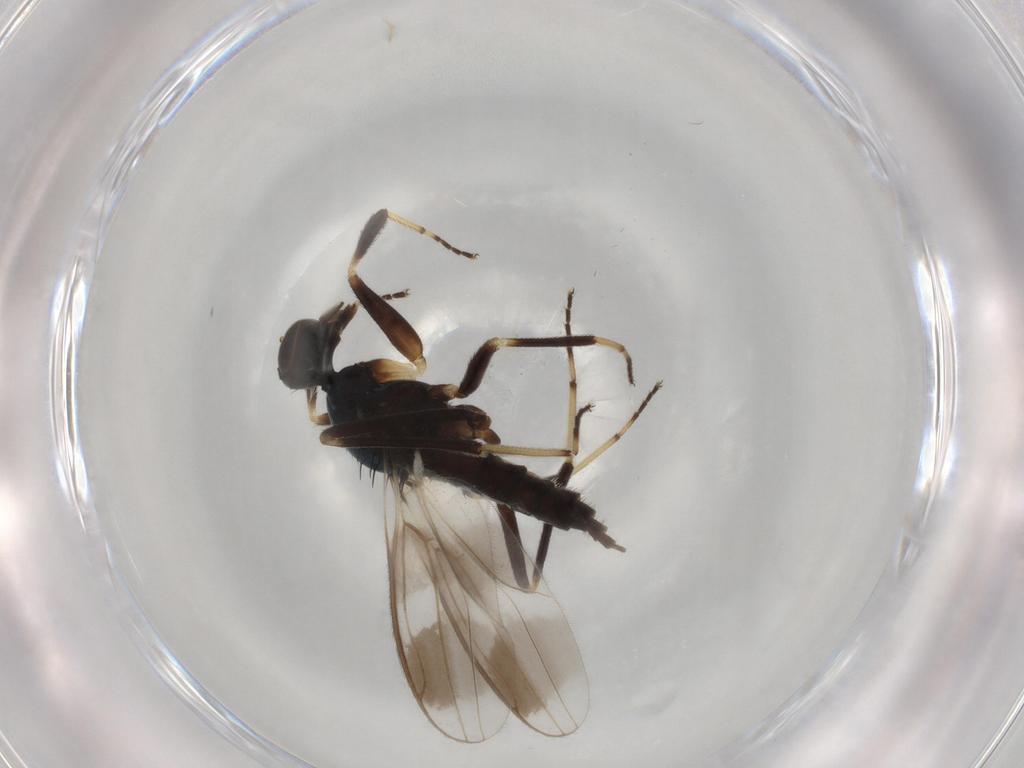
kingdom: Animalia
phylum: Arthropoda
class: Insecta
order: Diptera
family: Hybotidae
